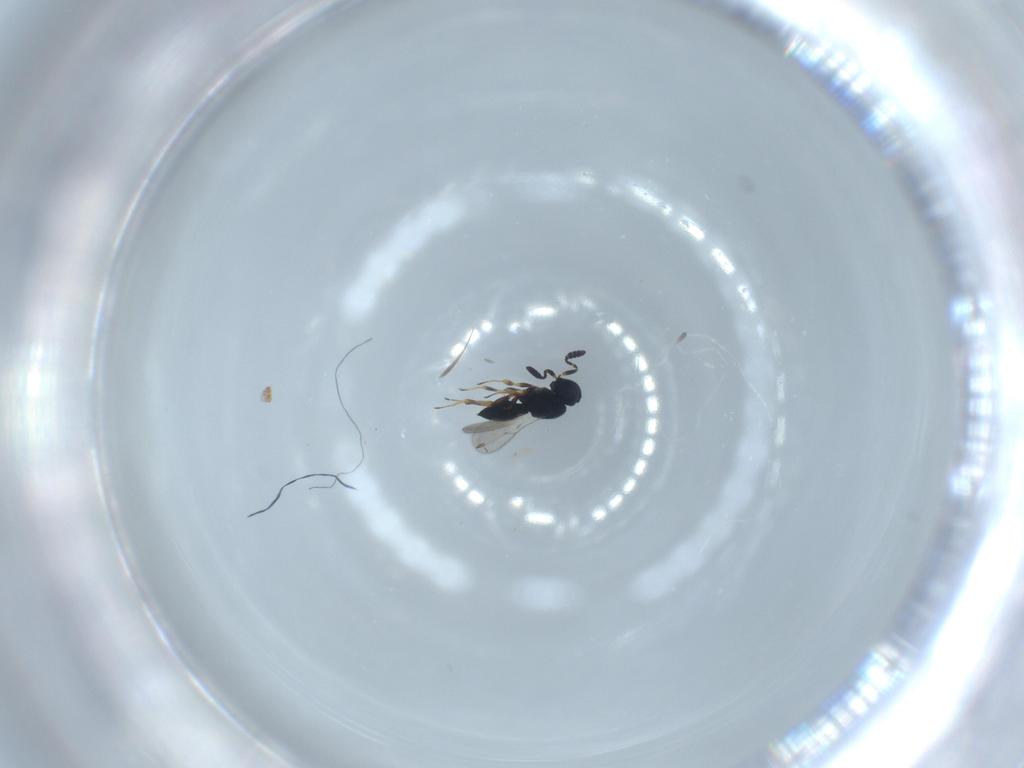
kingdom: Animalia
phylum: Arthropoda
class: Insecta
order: Hymenoptera
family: Scelionidae
